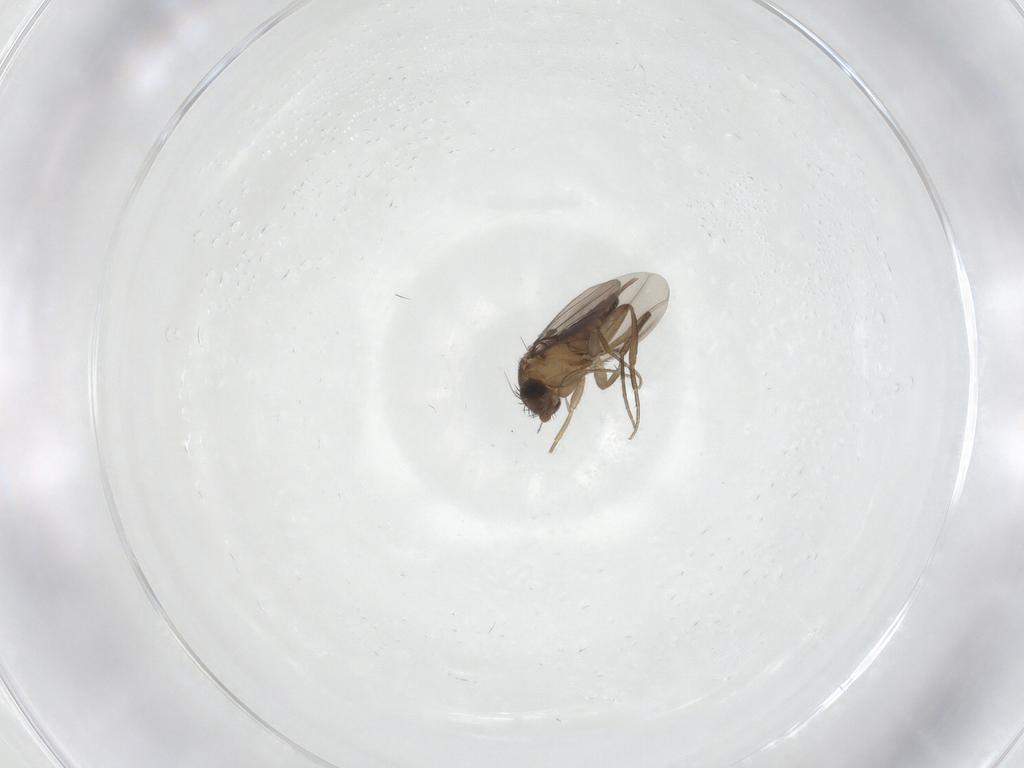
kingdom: Animalia
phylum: Arthropoda
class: Insecta
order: Diptera
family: Phoridae
